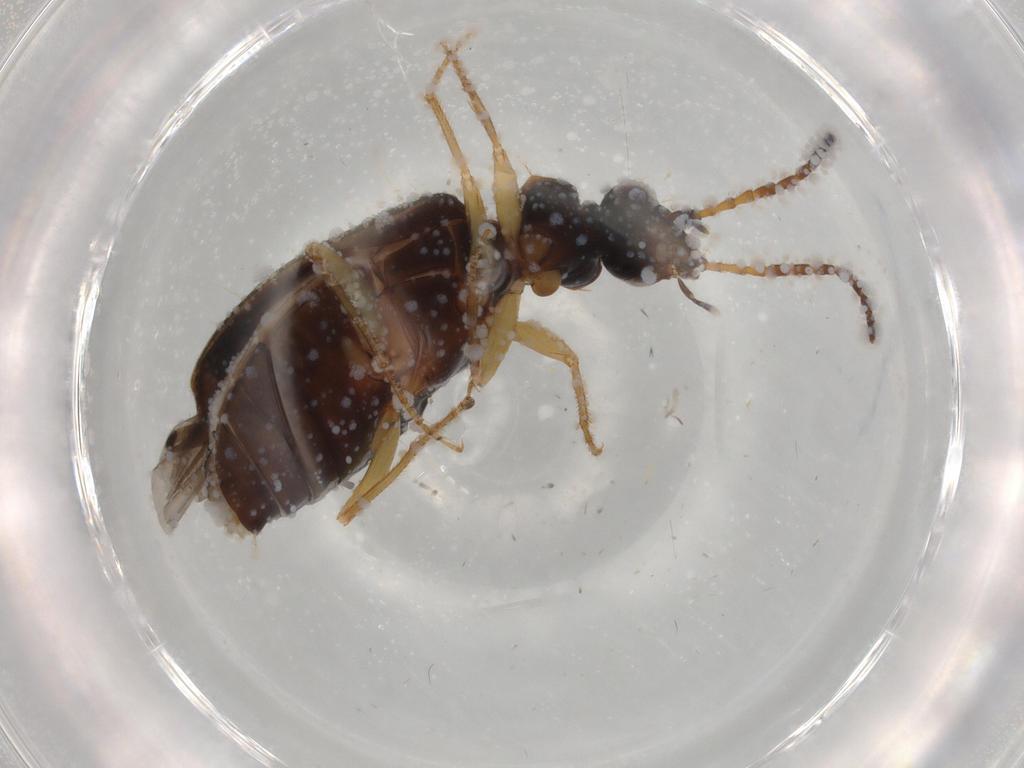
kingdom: Animalia
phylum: Arthropoda
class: Insecta
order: Coleoptera
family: Carabidae
